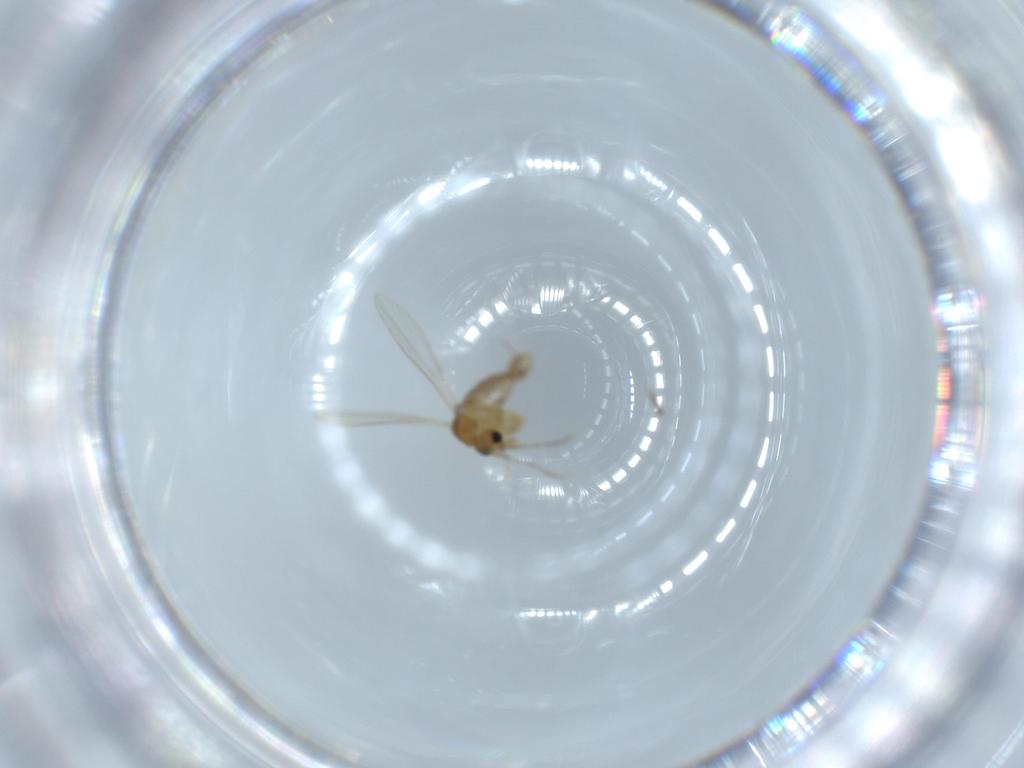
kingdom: Animalia
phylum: Arthropoda
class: Insecta
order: Diptera
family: Psychodidae
